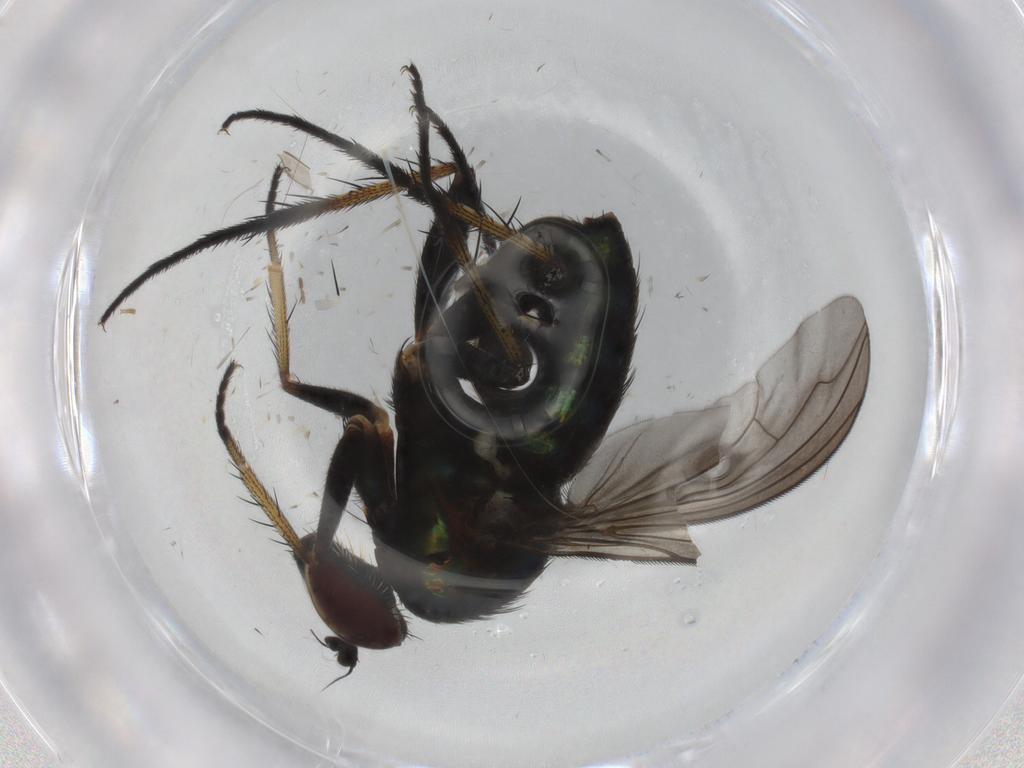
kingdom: Animalia
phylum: Arthropoda
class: Insecta
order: Diptera
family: Dolichopodidae
